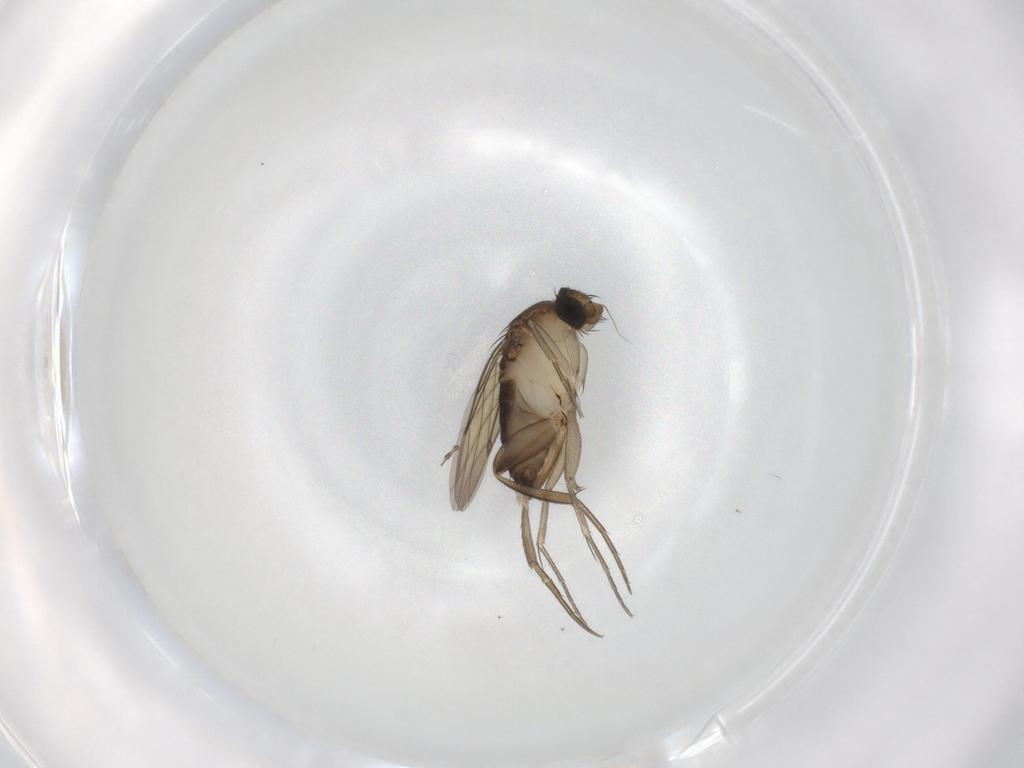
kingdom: Animalia
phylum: Arthropoda
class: Insecta
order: Diptera
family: Phoridae
